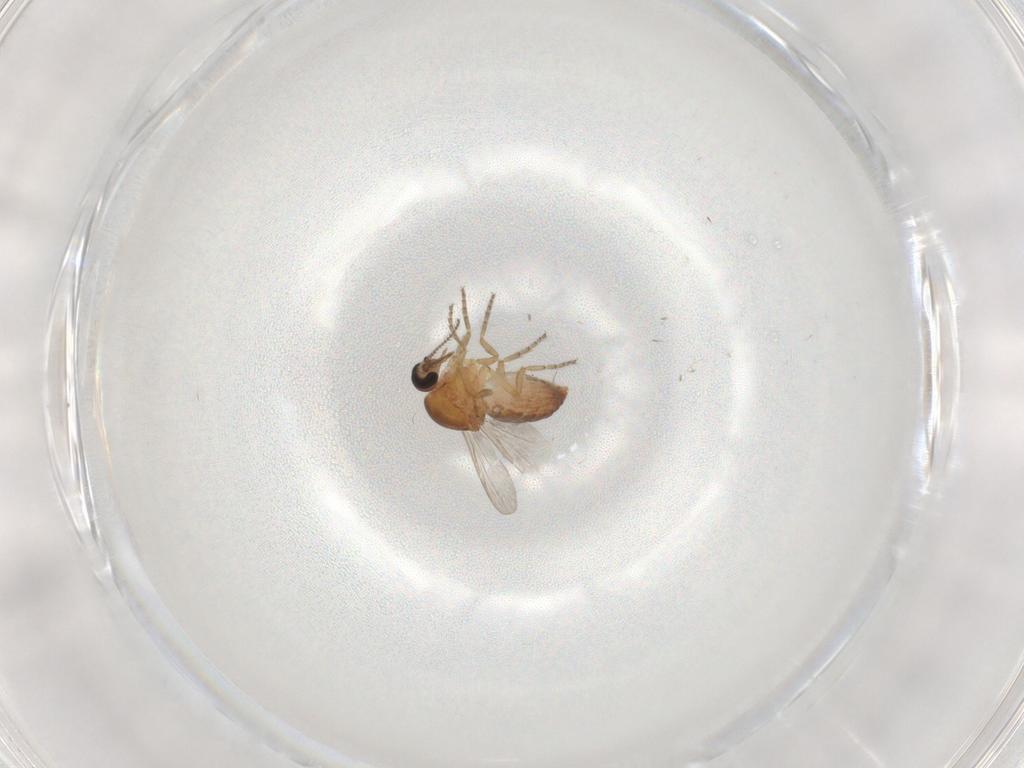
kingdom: Animalia
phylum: Arthropoda
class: Insecta
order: Diptera
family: Ceratopogonidae
